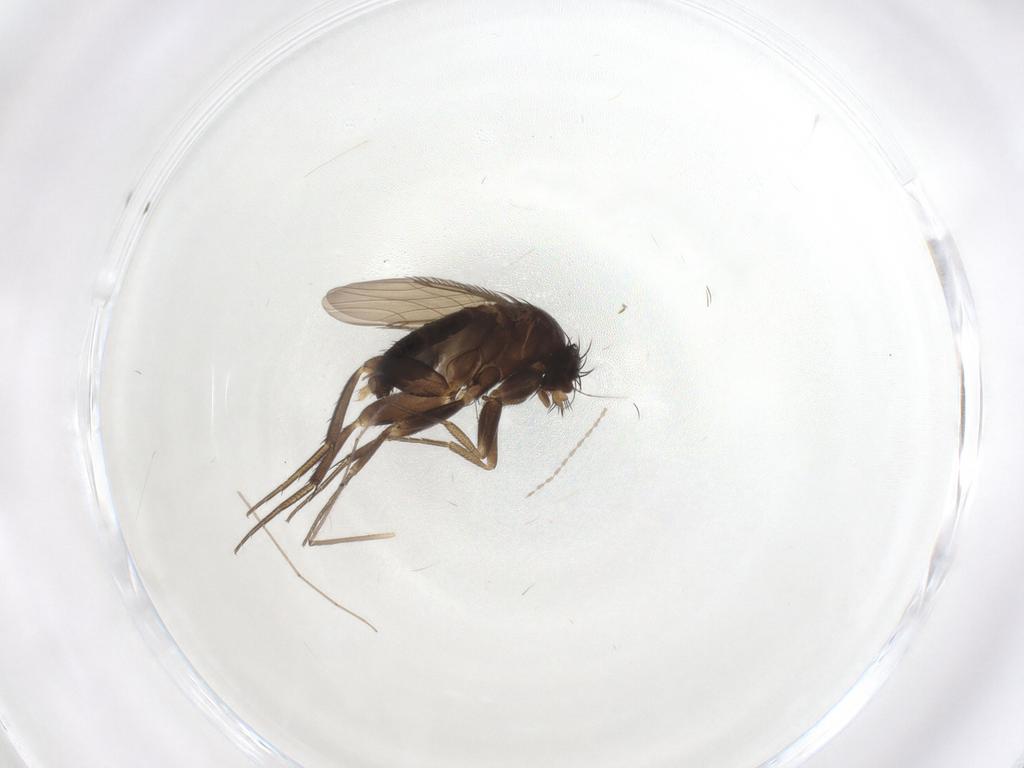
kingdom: Animalia
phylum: Arthropoda
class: Insecta
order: Diptera
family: Phoridae
